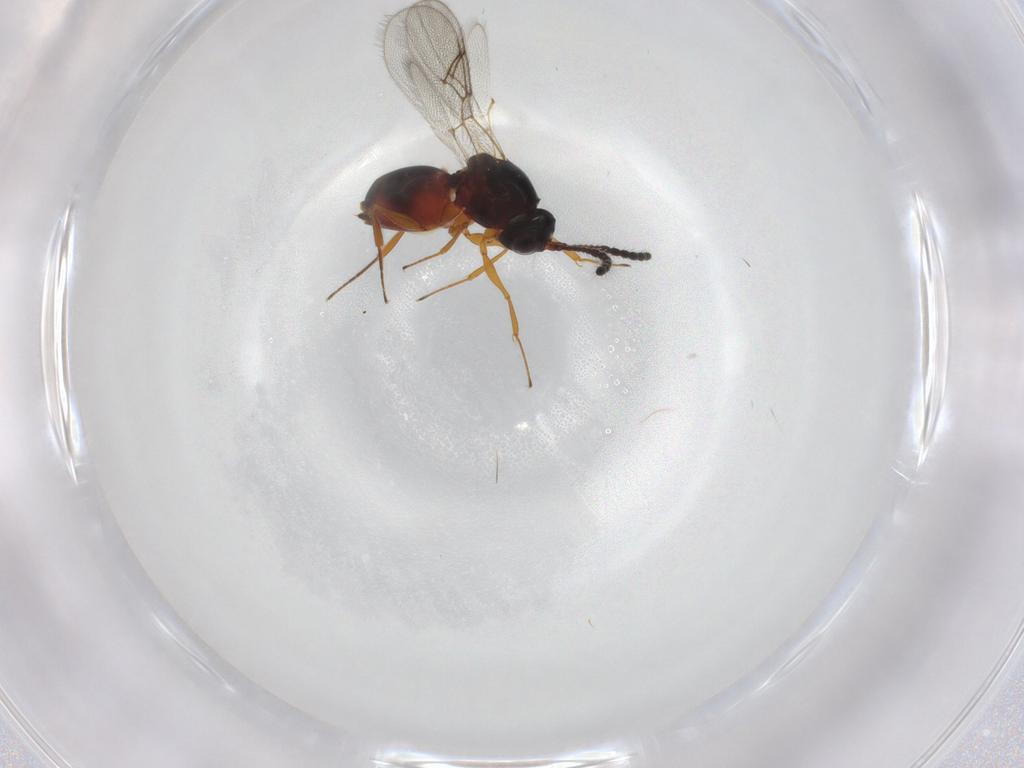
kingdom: Animalia
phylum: Arthropoda
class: Insecta
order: Hymenoptera
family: Figitidae
